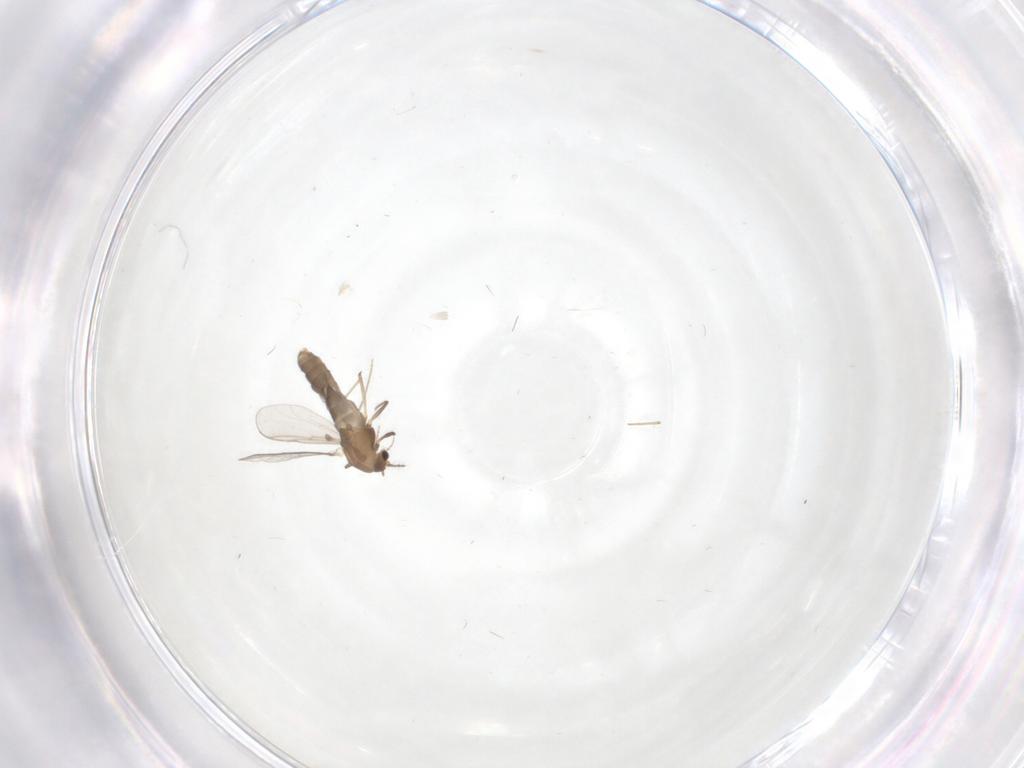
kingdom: Animalia
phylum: Arthropoda
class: Insecta
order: Diptera
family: Chironomidae
